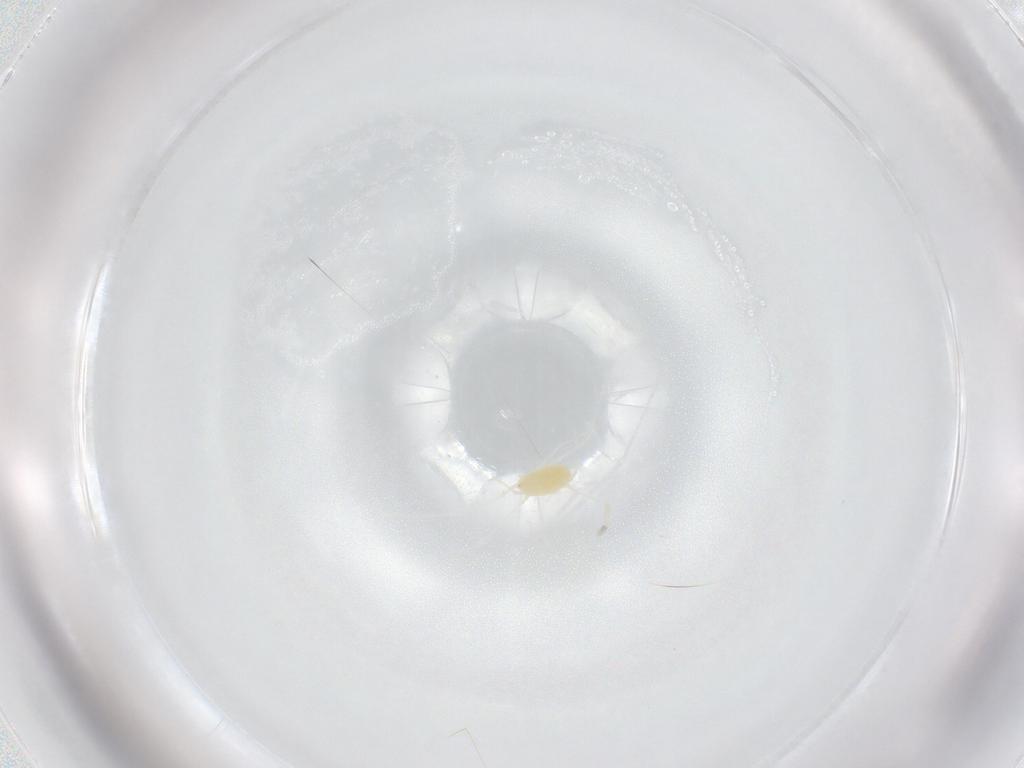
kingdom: Animalia
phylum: Arthropoda
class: Arachnida
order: Trombidiformes
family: Tetranychidae
